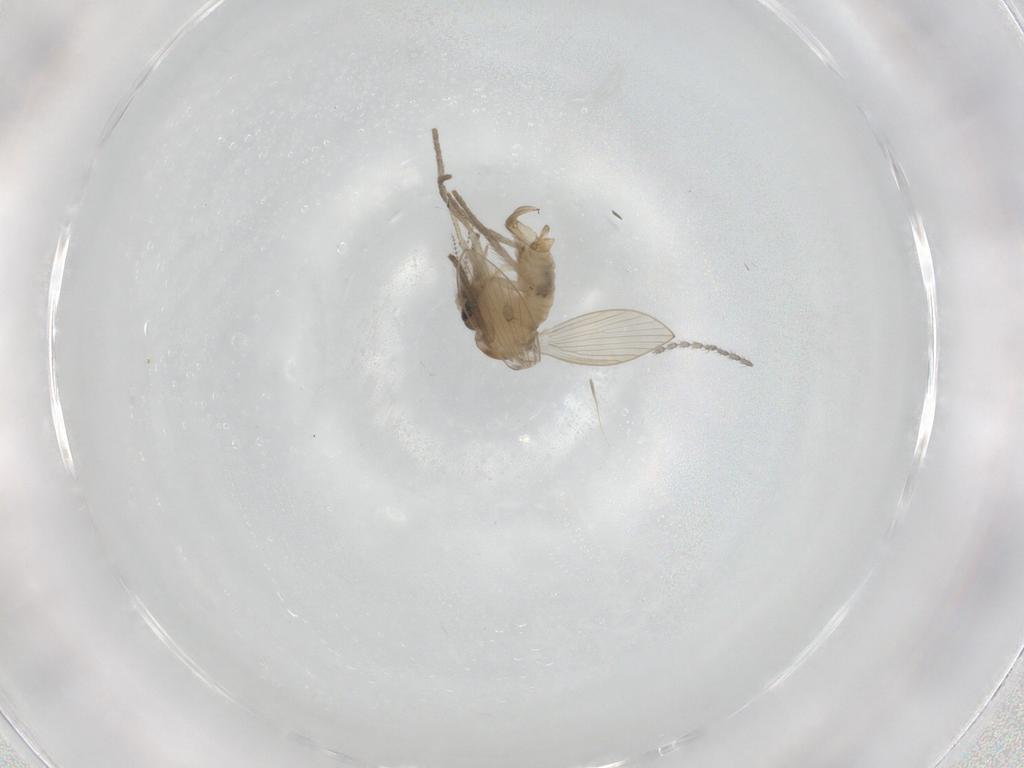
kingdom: Animalia
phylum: Arthropoda
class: Insecta
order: Diptera
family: Psychodidae
